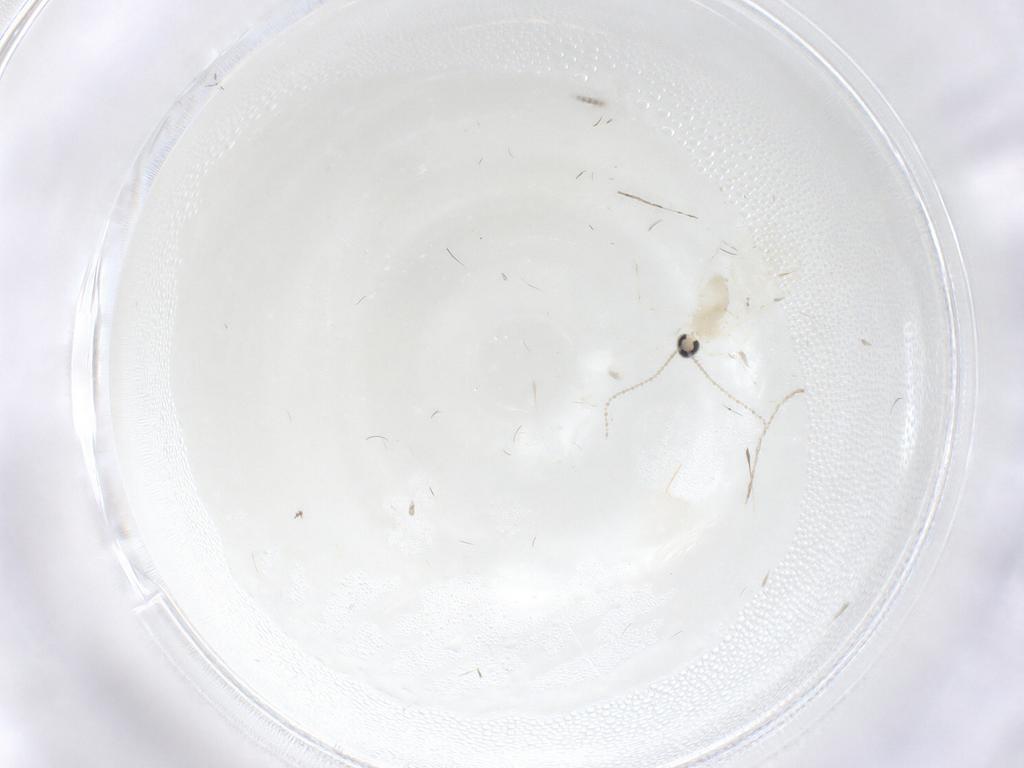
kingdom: Animalia
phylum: Arthropoda
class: Insecta
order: Diptera
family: Cecidomyiidae
